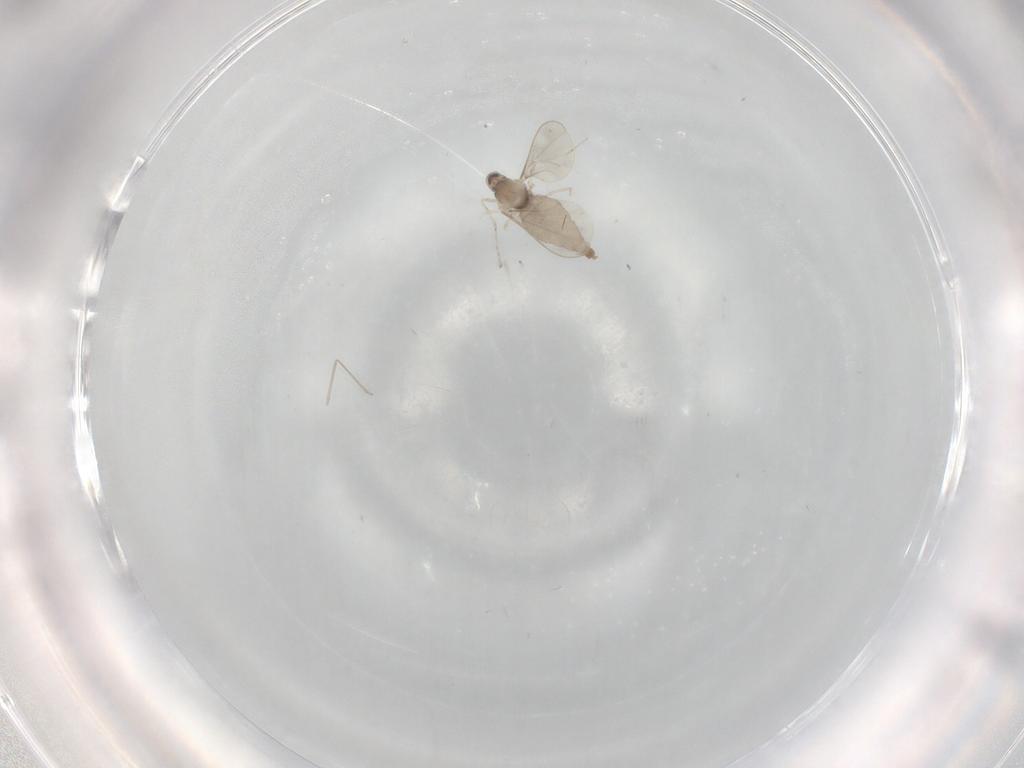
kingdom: Animalia
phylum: Arthropoda
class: Insecta
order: Diptera
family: Cecidomyiidae
